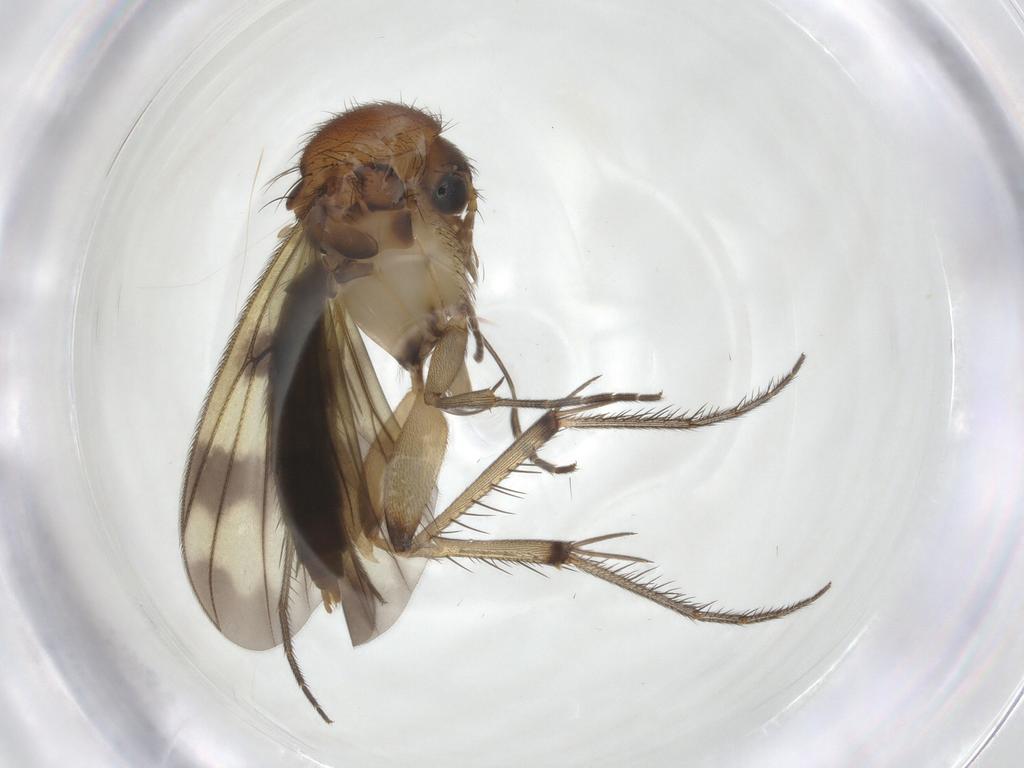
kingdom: Animalia
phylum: Arthropoda
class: Insecta
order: Diptera
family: Mycetophilidae
